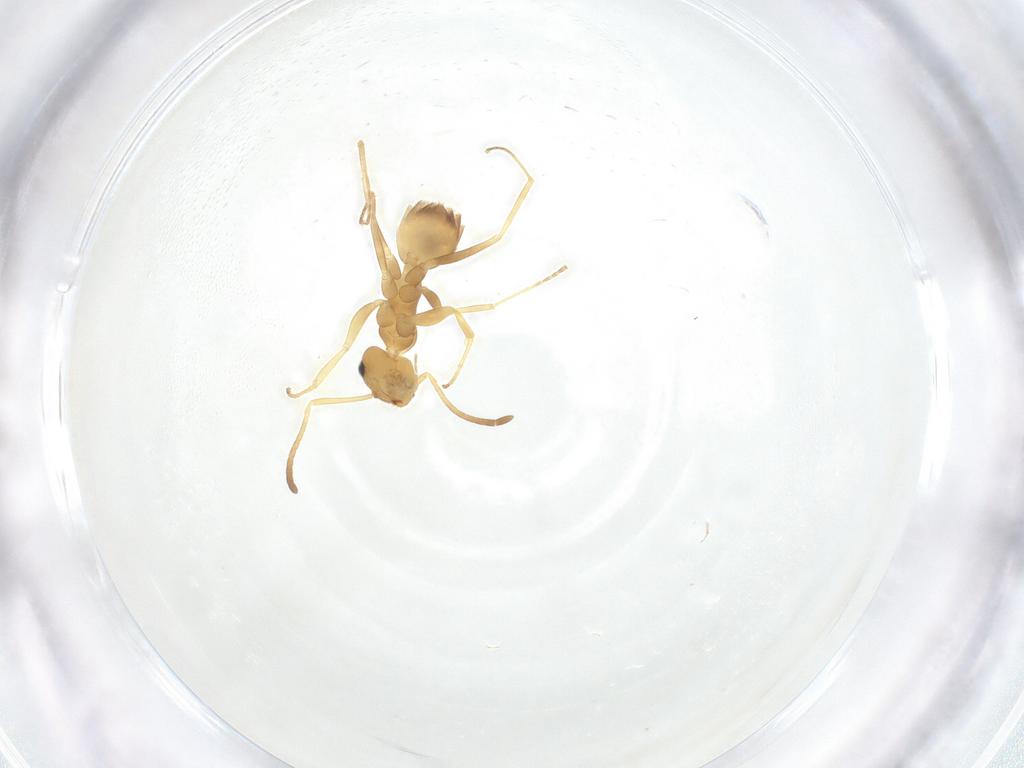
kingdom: Animalia
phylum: Arthropoda
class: Insecta
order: Hymenoptera
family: Formicidae
